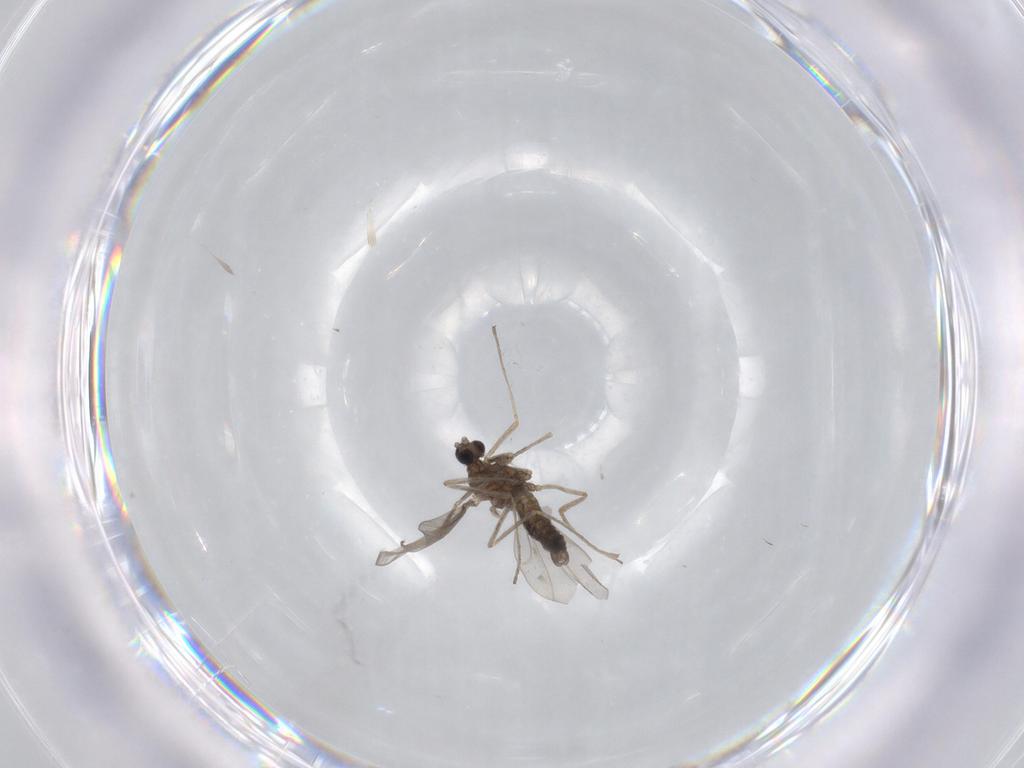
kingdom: Animalia
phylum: Arthropoda
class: Insecta
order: Diptera
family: Cecidomyiidae
